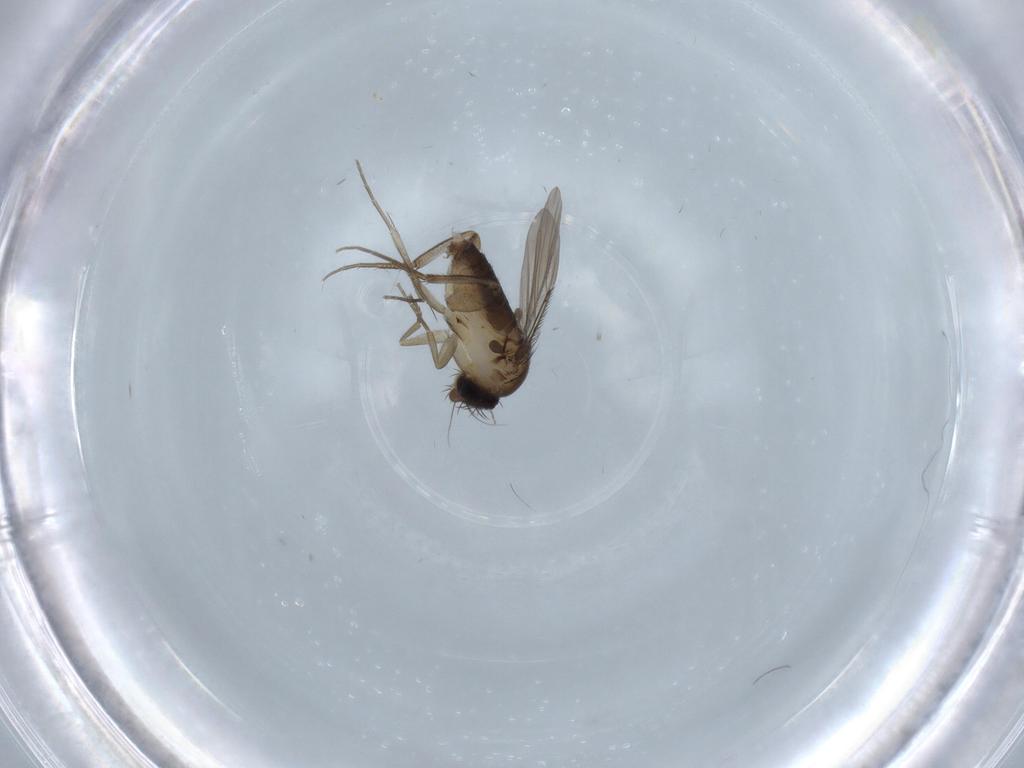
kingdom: Animalia
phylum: Arthropoda
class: Insecta
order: Diptera
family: Phoridae
